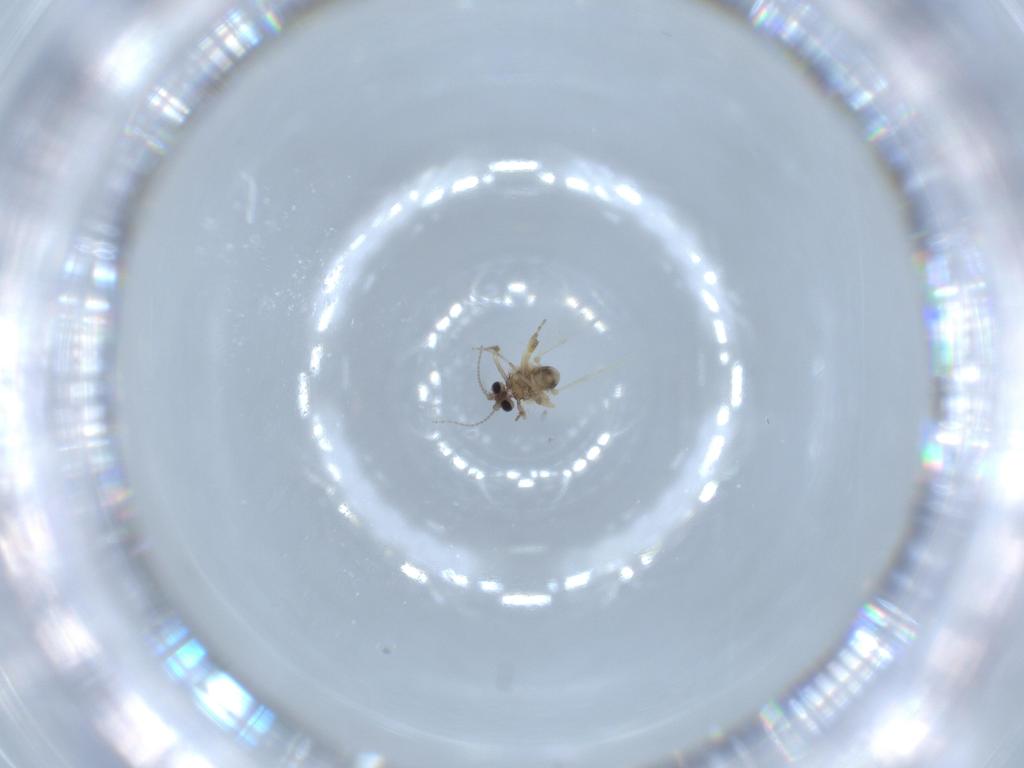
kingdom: Animalia
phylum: Arthropoda
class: Insecta
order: Diptera
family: Ceratopogonidae
